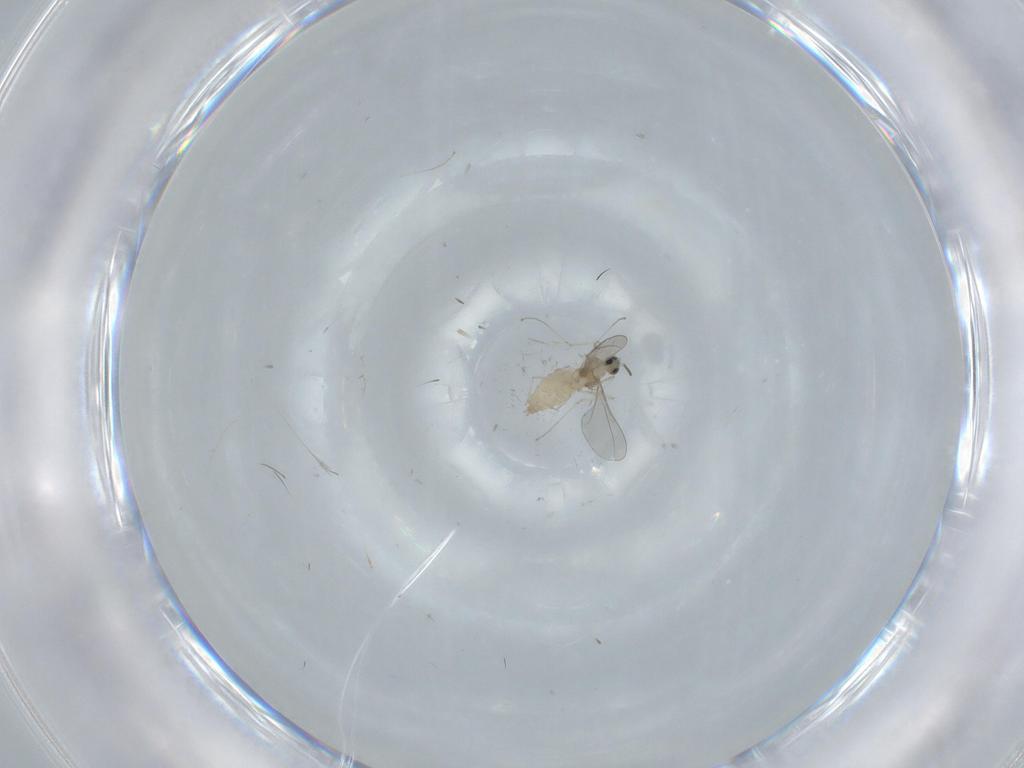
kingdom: Animalia
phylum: Arthropoda
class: Insecta
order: Diptera
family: Cecidomyiidae
